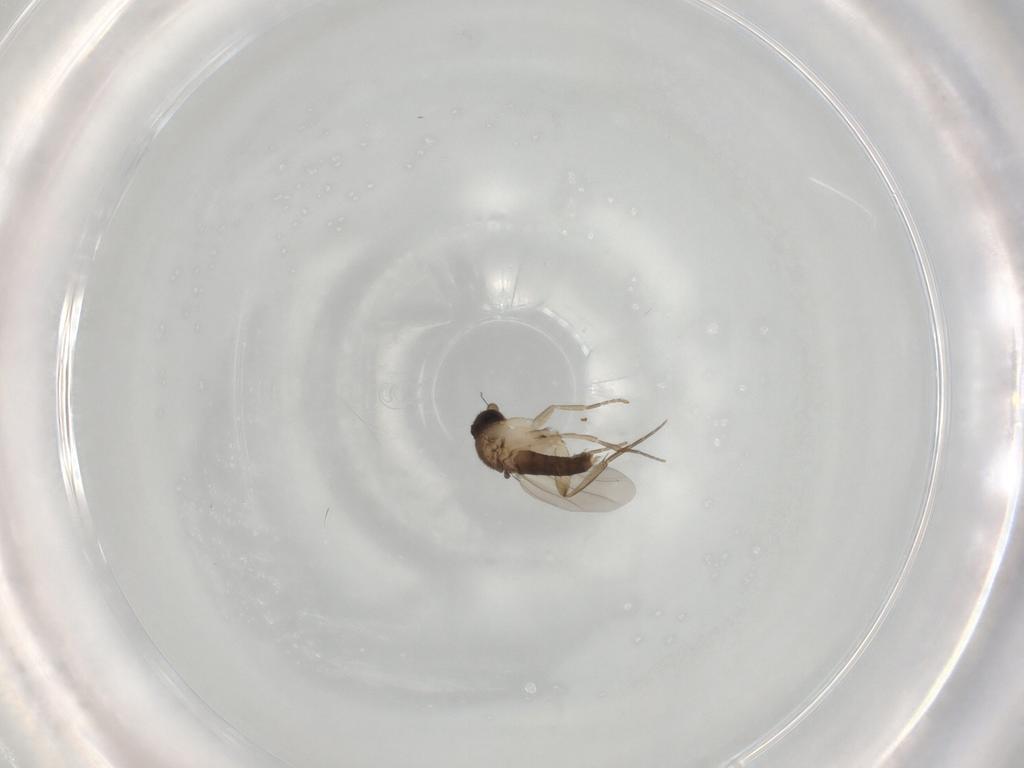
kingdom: Animalia
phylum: Arthropoda
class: Insecta
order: Diptera
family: Phoridae
